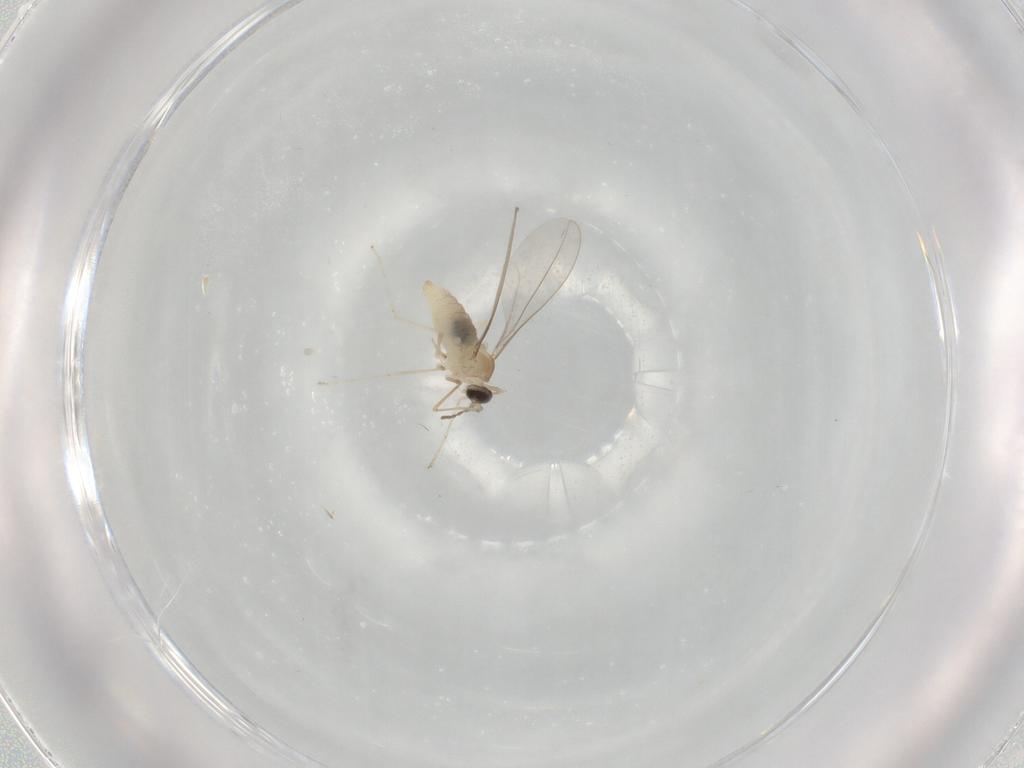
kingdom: Animalia
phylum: Arthropoda
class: Insecta
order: Diptera
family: Cecidomyiidae
